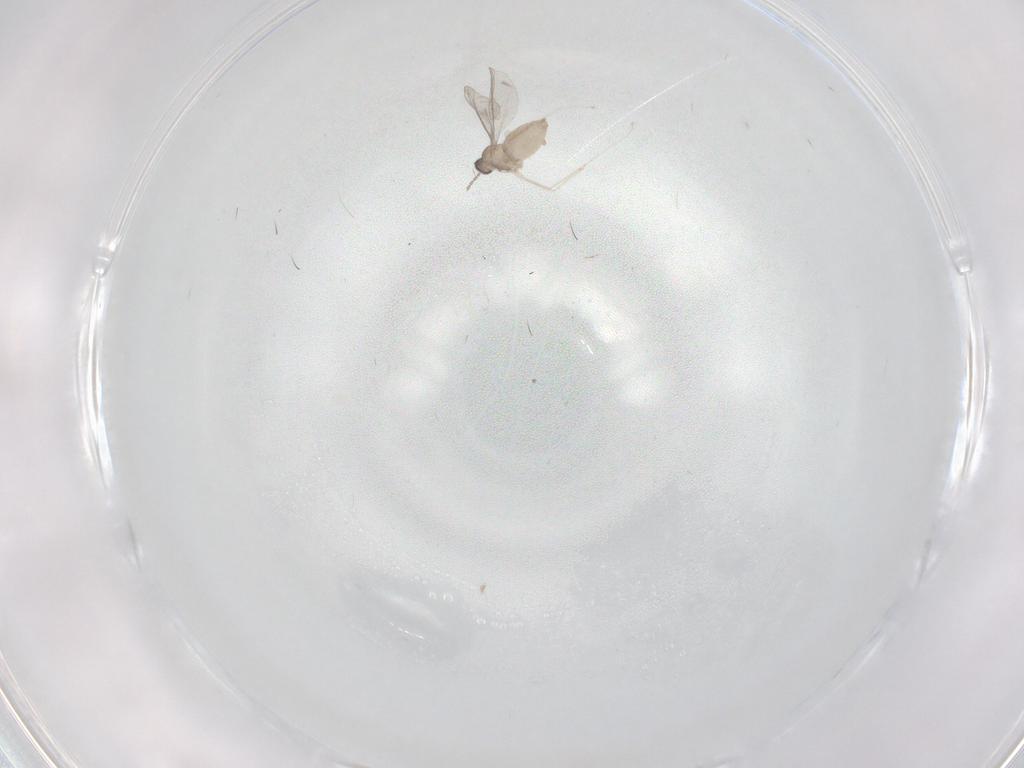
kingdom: Animalia
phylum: Arthropoda
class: Insecta
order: Diptera
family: Cecidomyiidae
